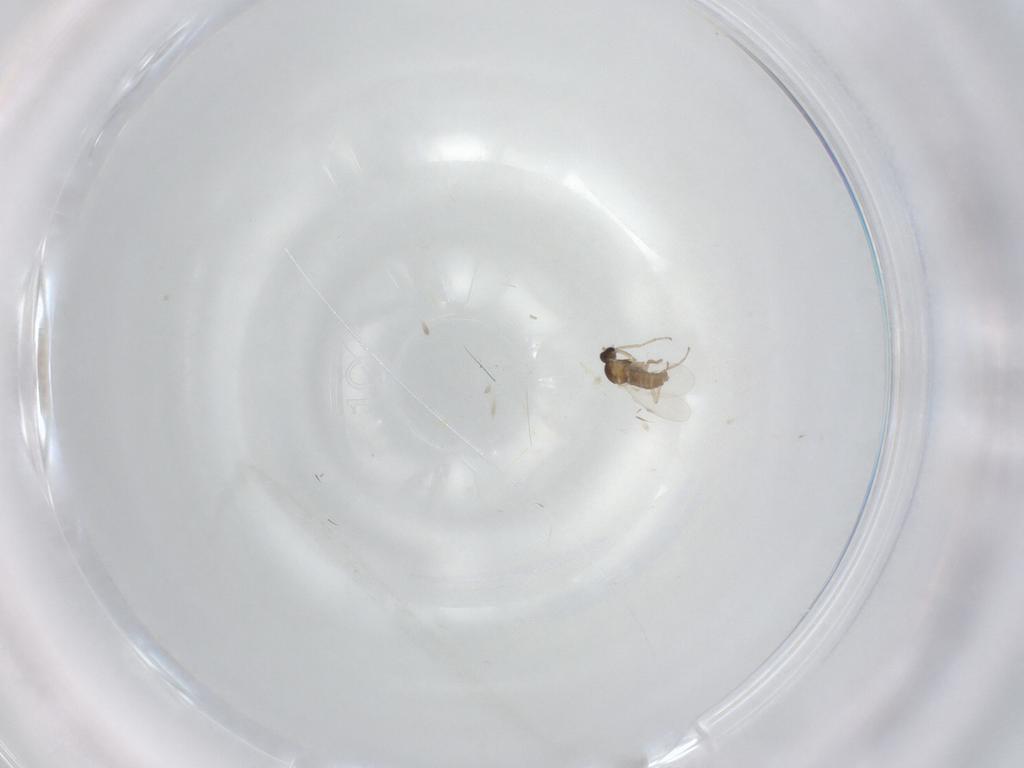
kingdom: Animalia
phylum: Arthropoda
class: Insecta
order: Diptera
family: Cecidomyiidae
